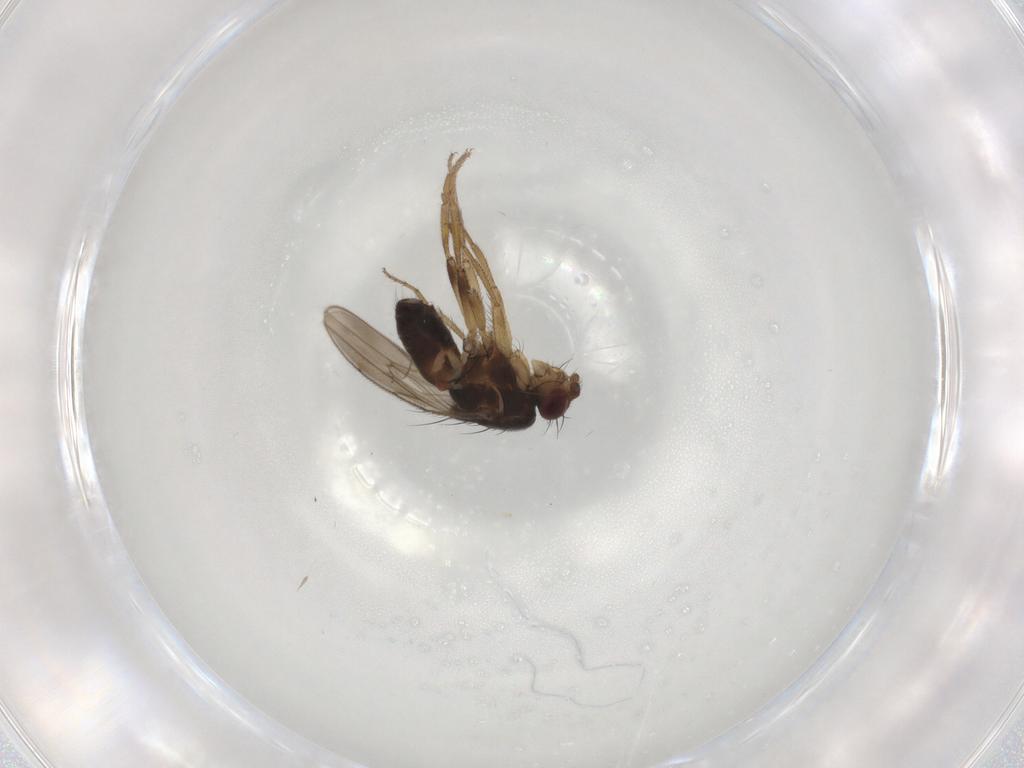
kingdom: Animalia
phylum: Arthropoda
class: Insecta
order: Diptera
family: Sphaeroceridae
